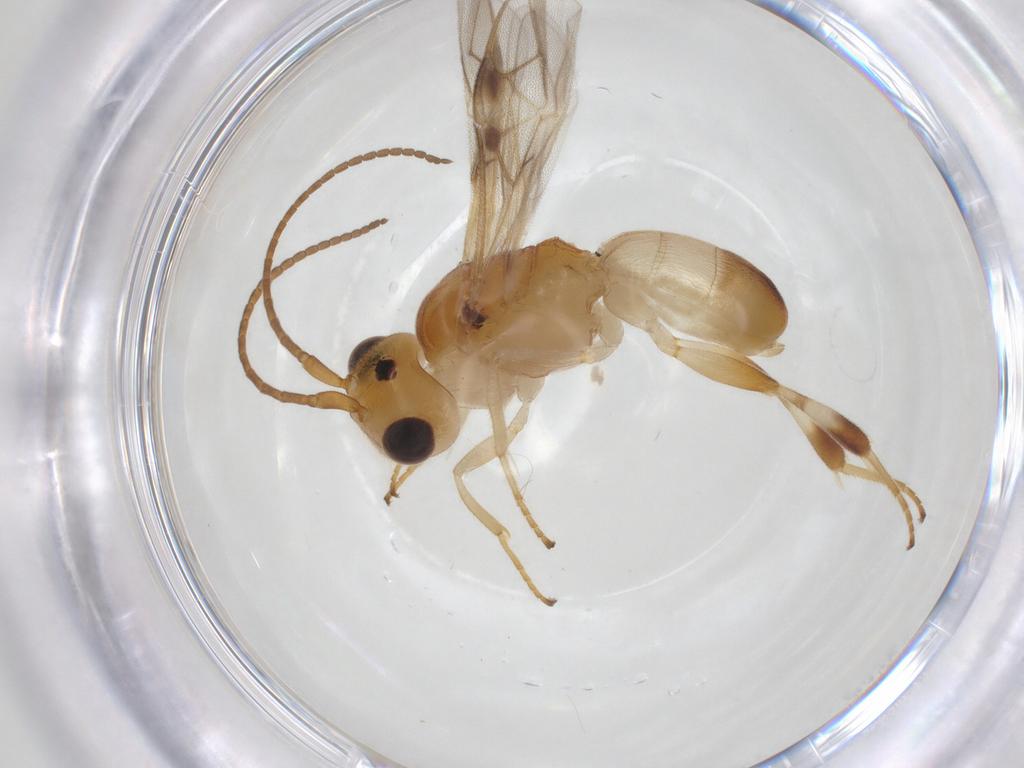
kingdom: Animalia
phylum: Arthropoda
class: Insecta
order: Hymenoptera
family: Braconidae
